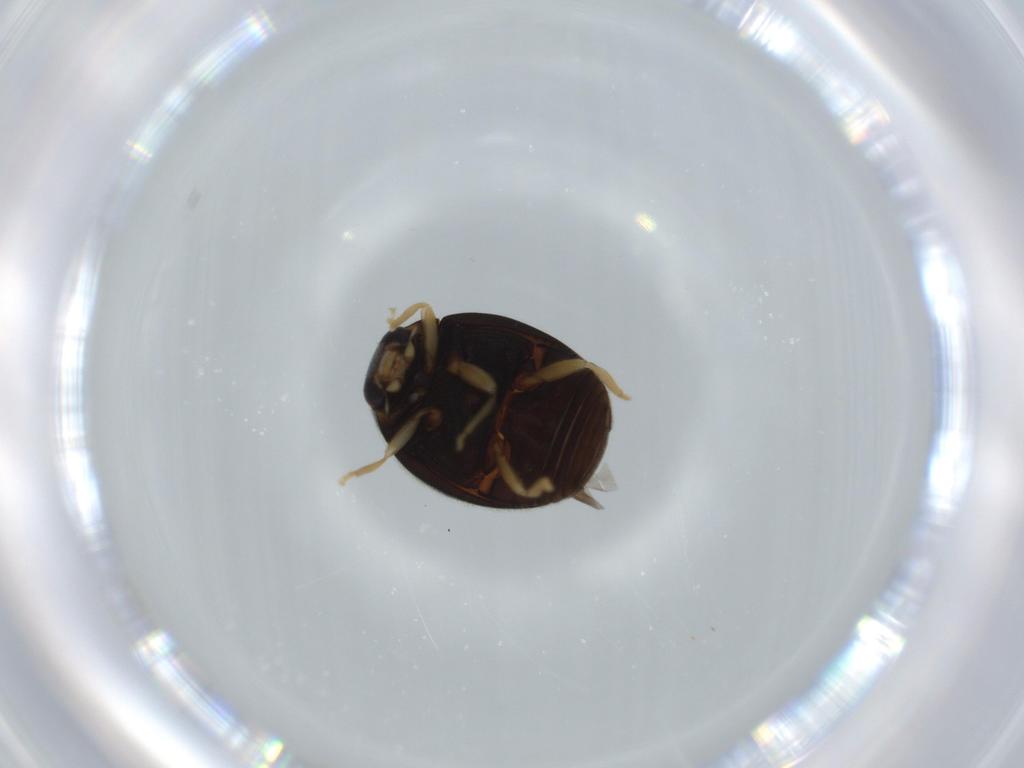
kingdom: Animalia
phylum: Arthropoda
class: Insecta
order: Coleoptera
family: Coccinellidae
